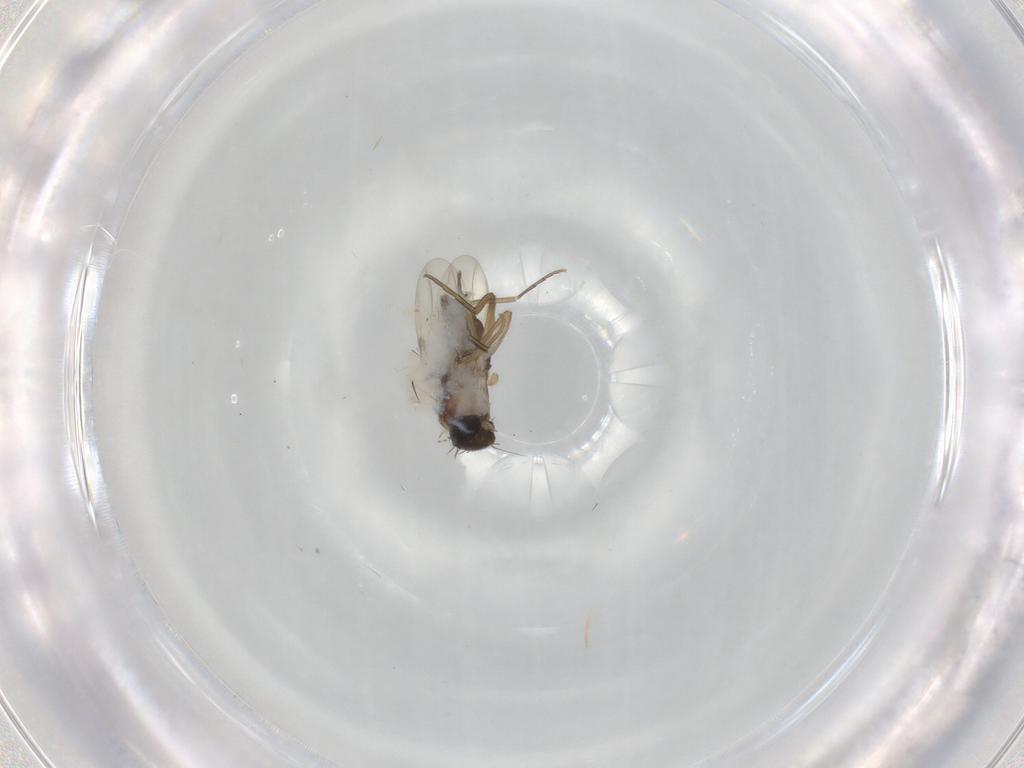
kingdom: Animalia
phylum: Arthropoda
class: Insecta
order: Diptera
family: Phoridae
